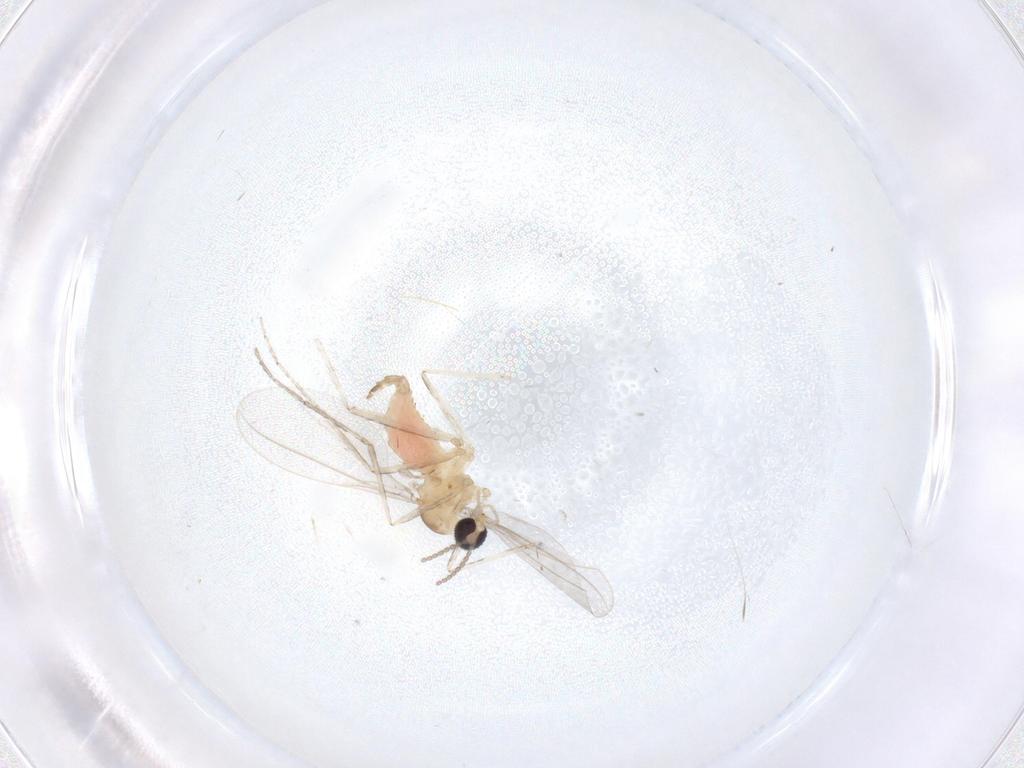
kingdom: Animalia
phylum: Arthropoda
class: Insecta
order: Diptera
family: Cecidomyiidae
